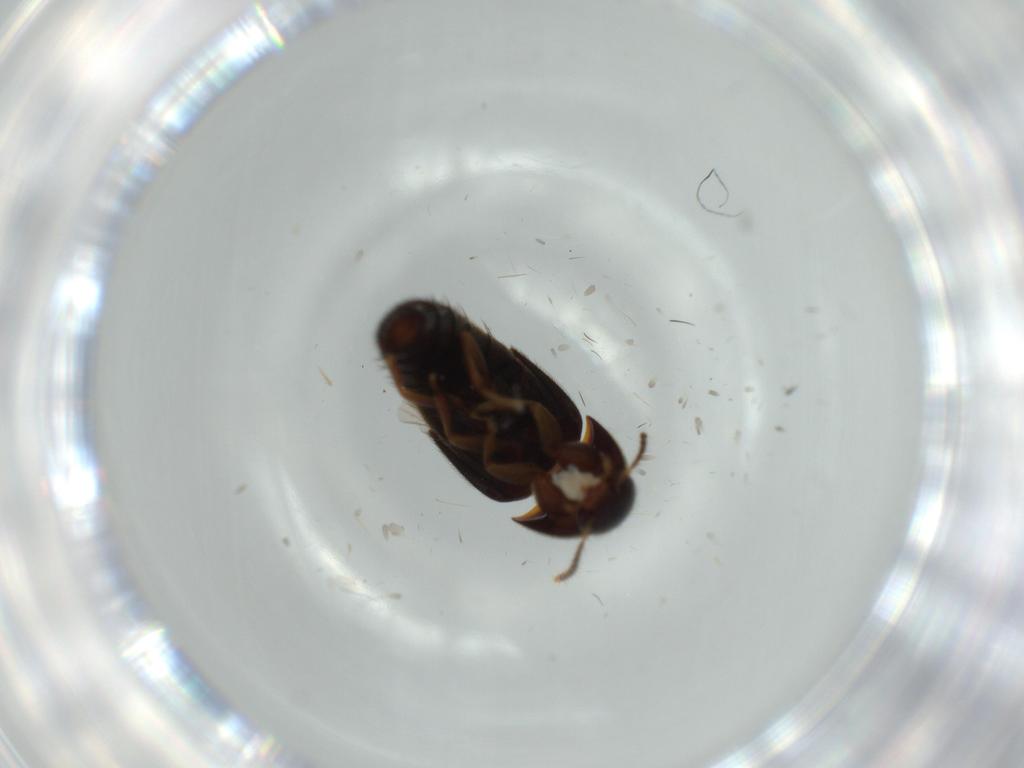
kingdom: Animalia
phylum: Arthropoda
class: Insecta
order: Coleoptera
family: Staphylinidae
